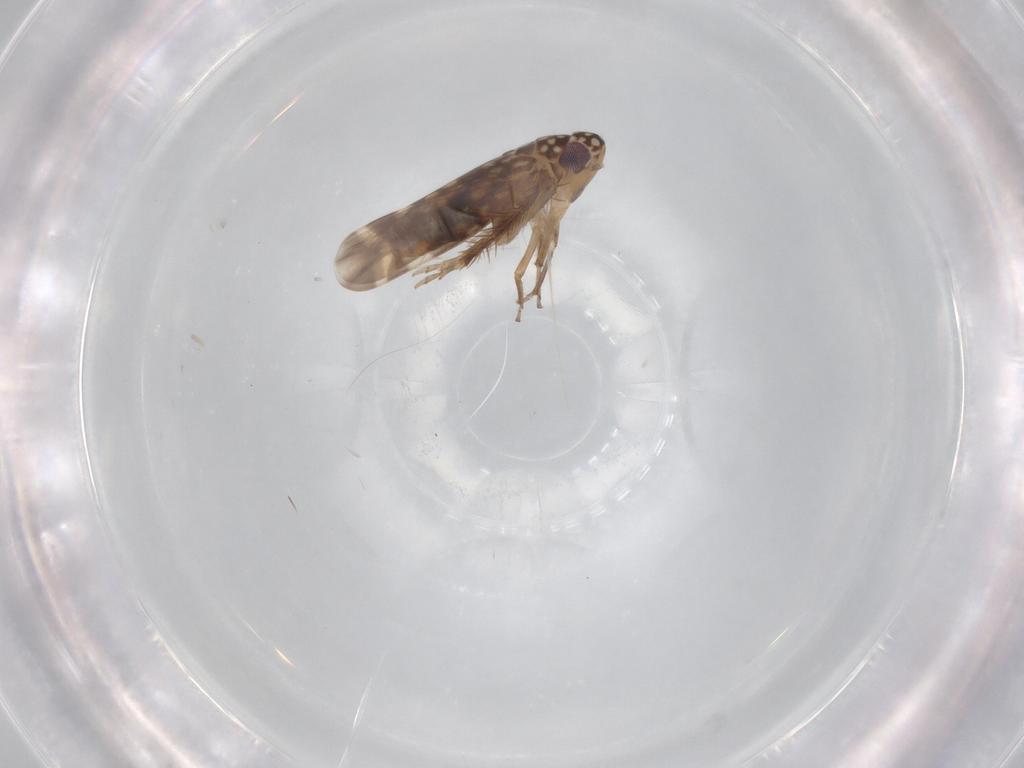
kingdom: Animalia
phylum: Arthropoda
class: Insecta
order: Hemiptera
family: Cicadellidae
